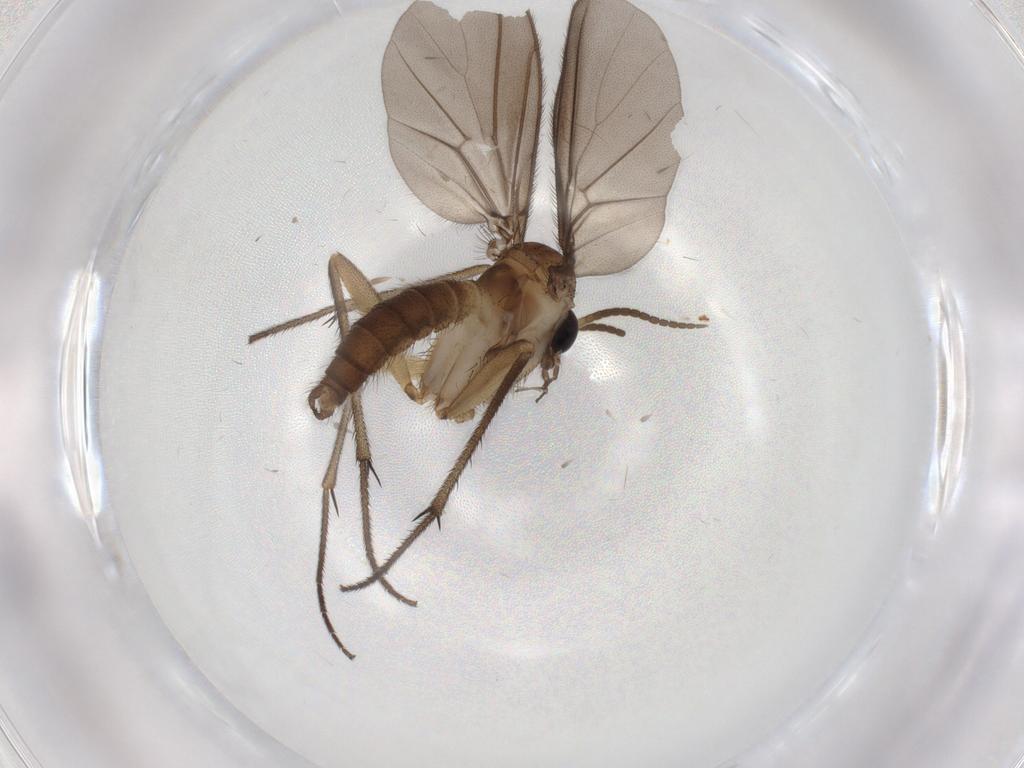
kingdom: Animalia
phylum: Arthropoda
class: Insecta
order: Diptera
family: Diadocidiidae
